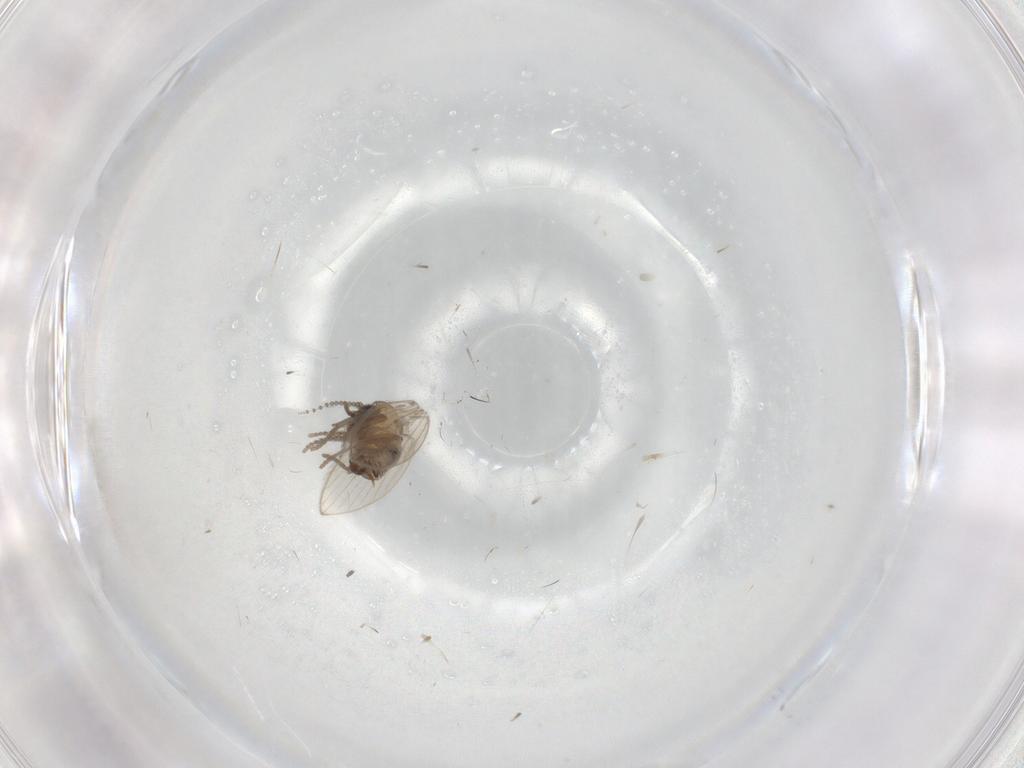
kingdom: Animalia
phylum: Arthropoda
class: Insecta
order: Diptera
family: Psychodidae
